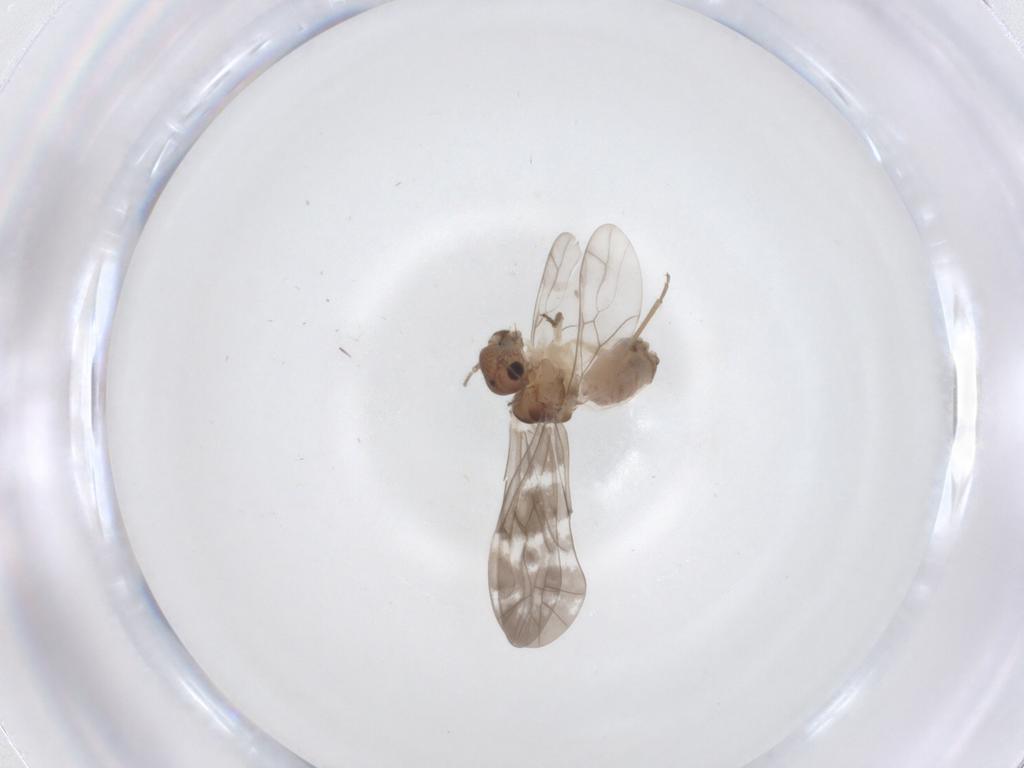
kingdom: Animalia
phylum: Arthropoda
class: Insecta
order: Psocodea
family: Peripsocidae
